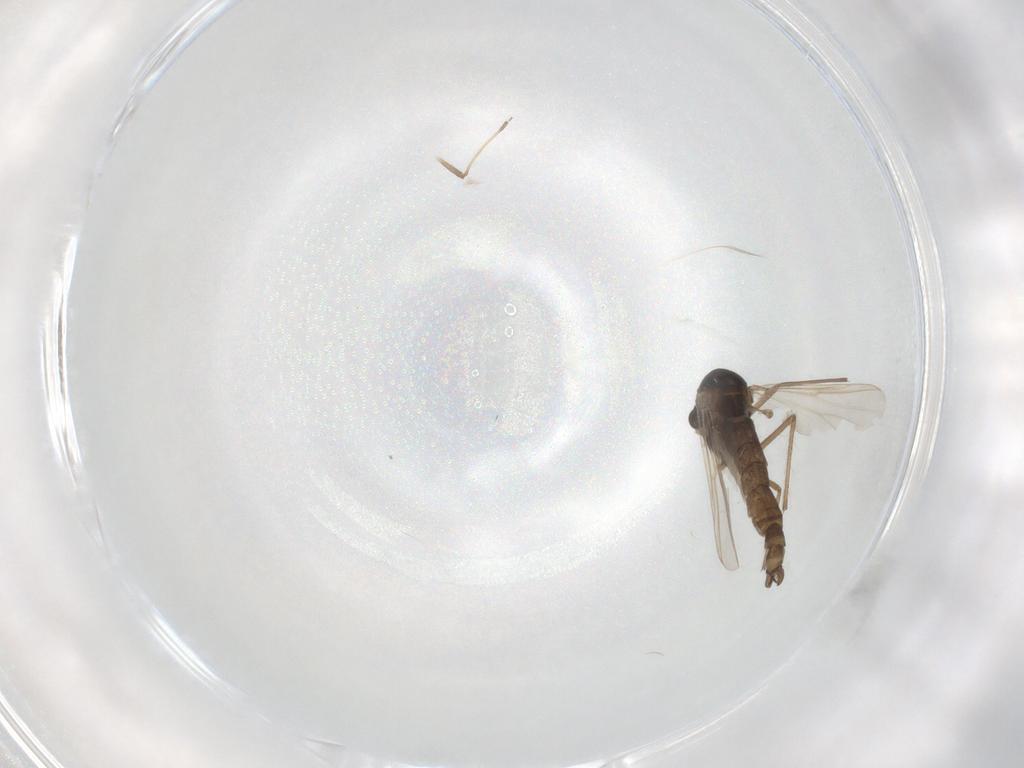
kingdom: Animalia
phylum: Arthropoda
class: Insecta
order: Diptera
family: Chironomidae
